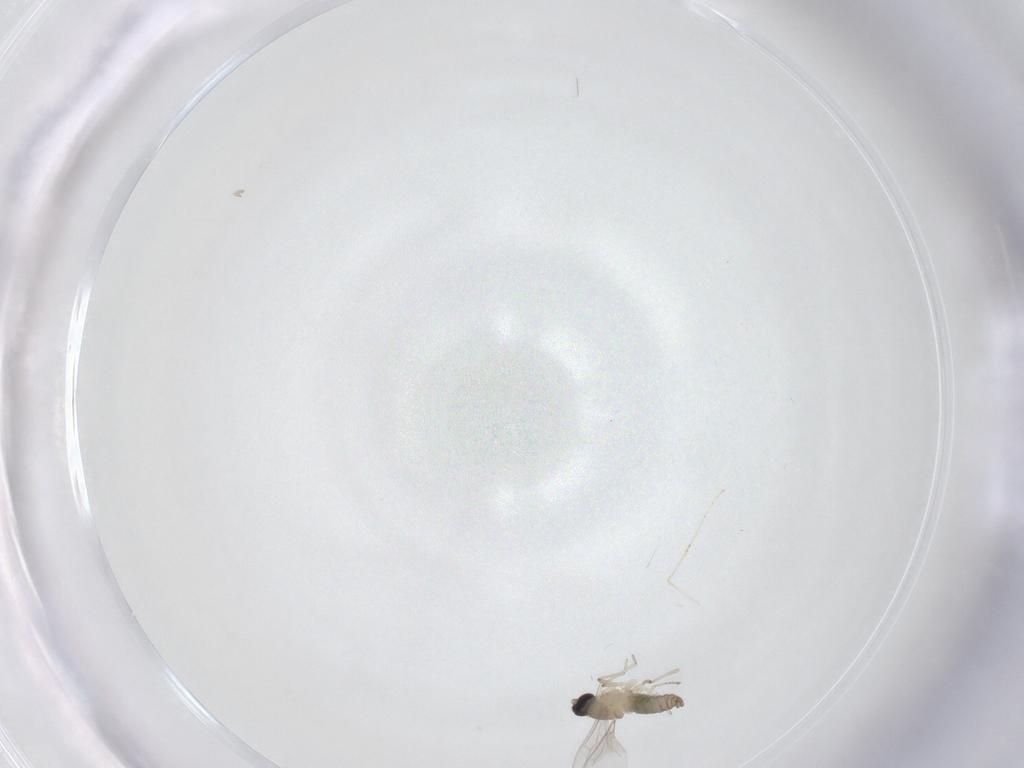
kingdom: Animalia
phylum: Arthropoda
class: Insecta
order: Diptera
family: Cecidomyiidae
